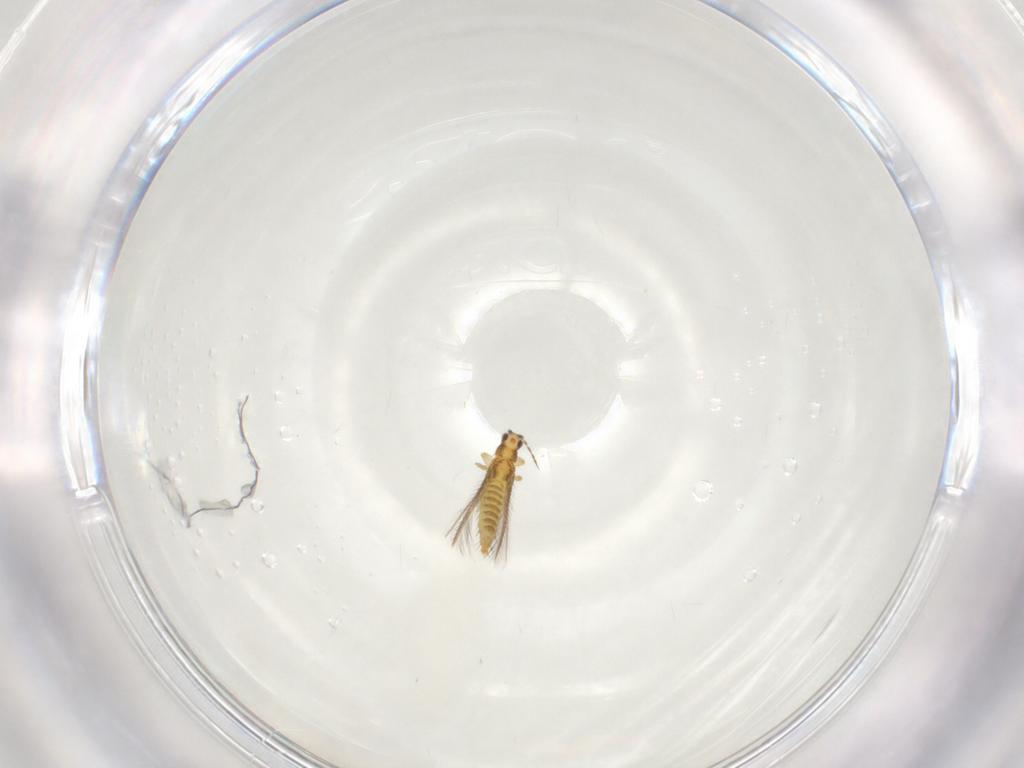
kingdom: Animalia
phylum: Arthropoda
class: Insecta
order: Thysanoptera
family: Thripidae
